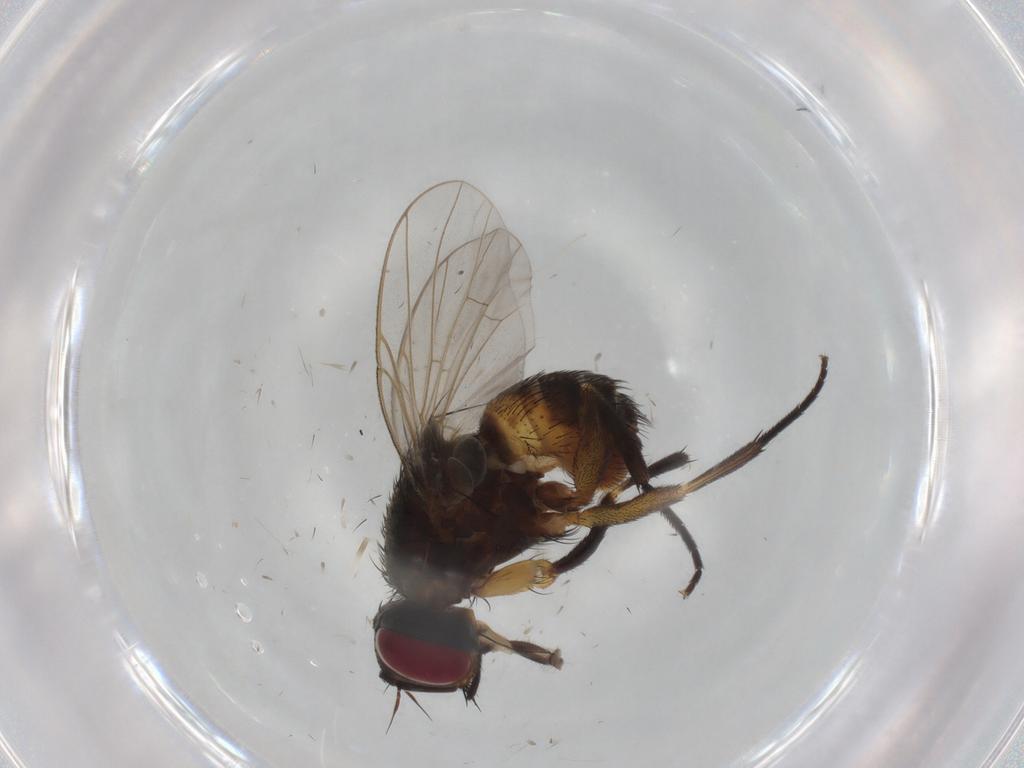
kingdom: Animalia
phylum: Arthropoda
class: Insecta
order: Diptera
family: Muscidae
